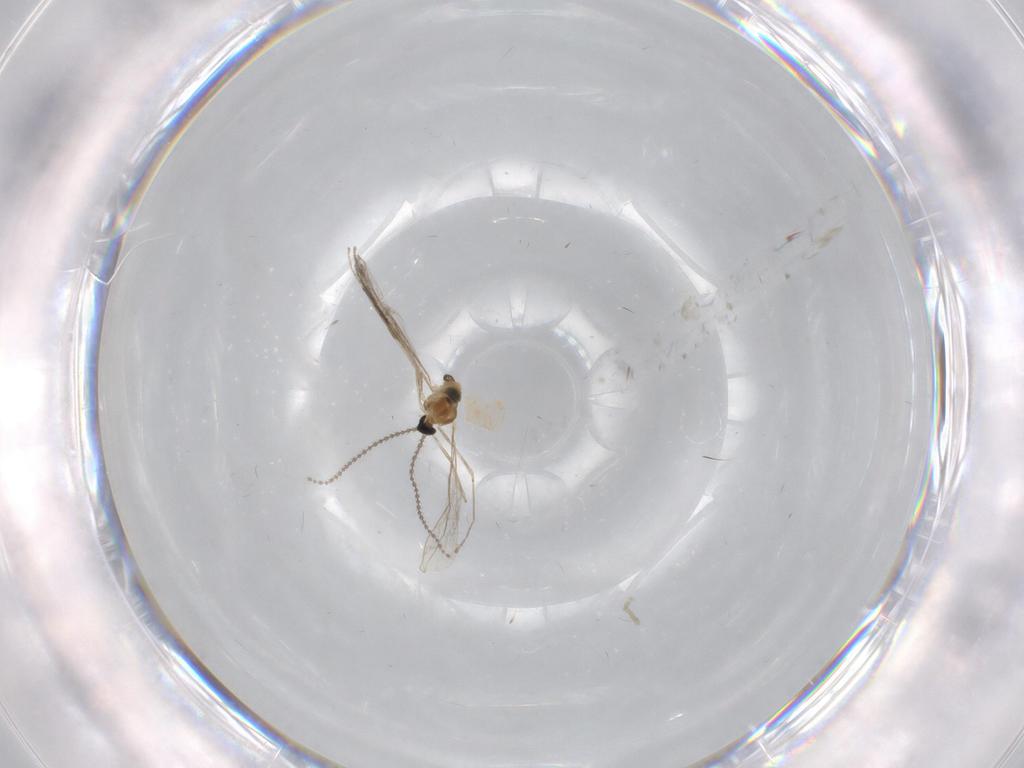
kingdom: Animalia
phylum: Arthropoda
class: Insecta
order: Diptera
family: Cecidomyiidae
